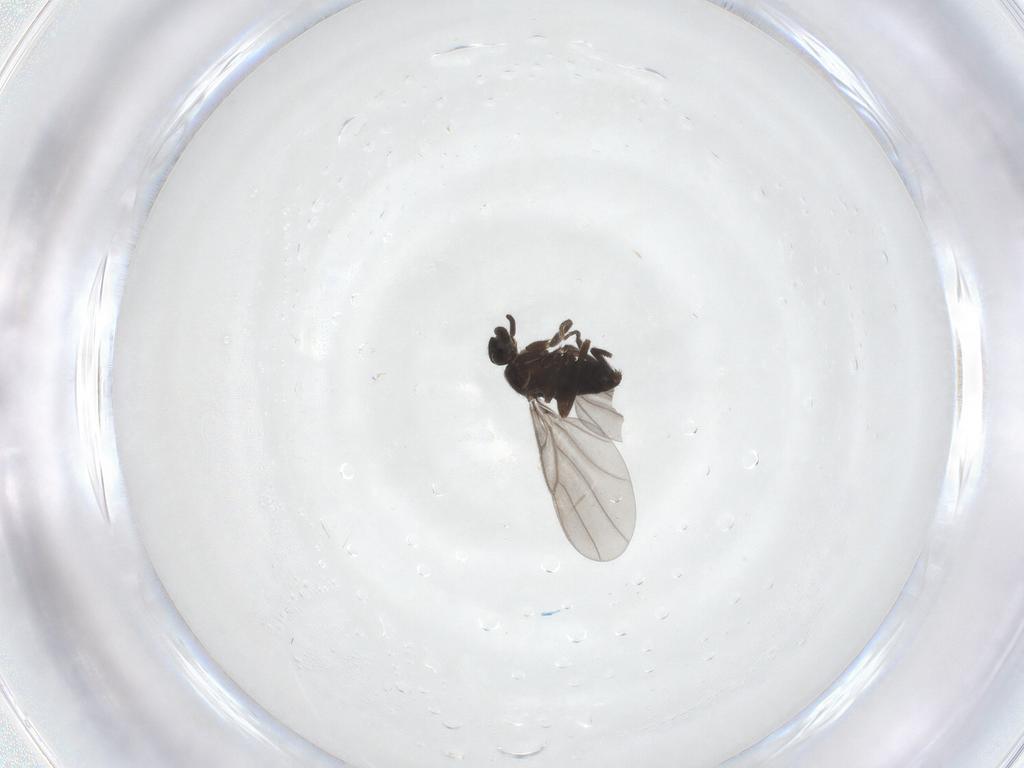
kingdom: Animalia
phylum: Arthropoda
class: Insecta
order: Diptera
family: Limoniidae
